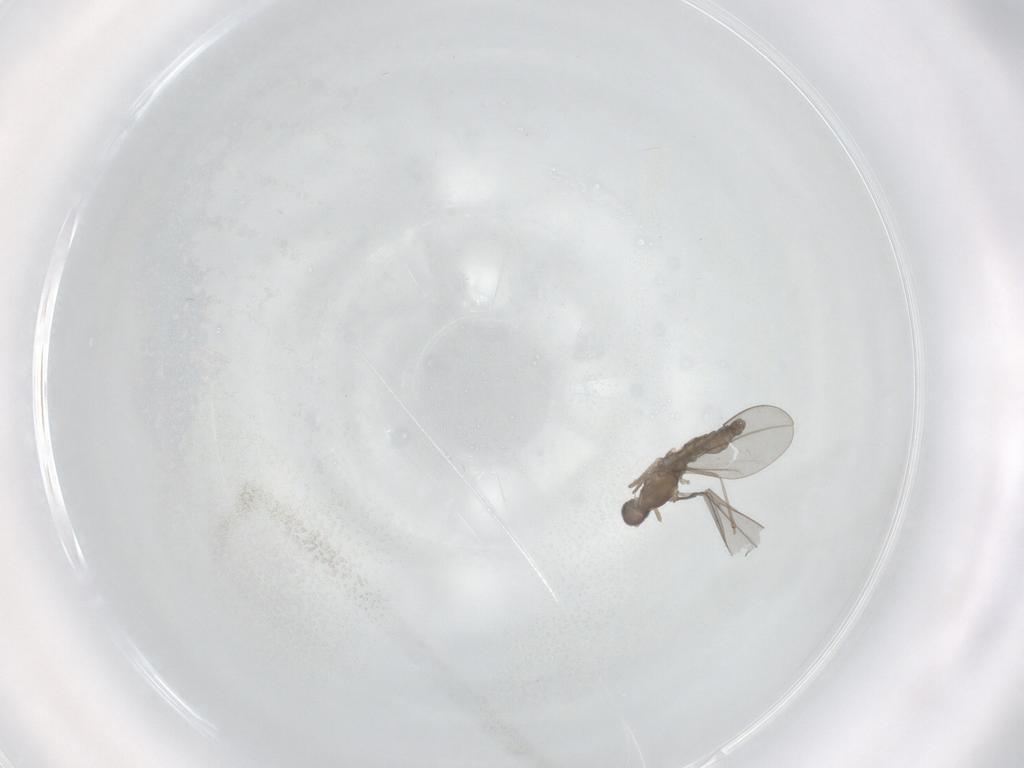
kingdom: Animalia
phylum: Arthropoda
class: Insecta
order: Diptera
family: Cecidomyiidae
